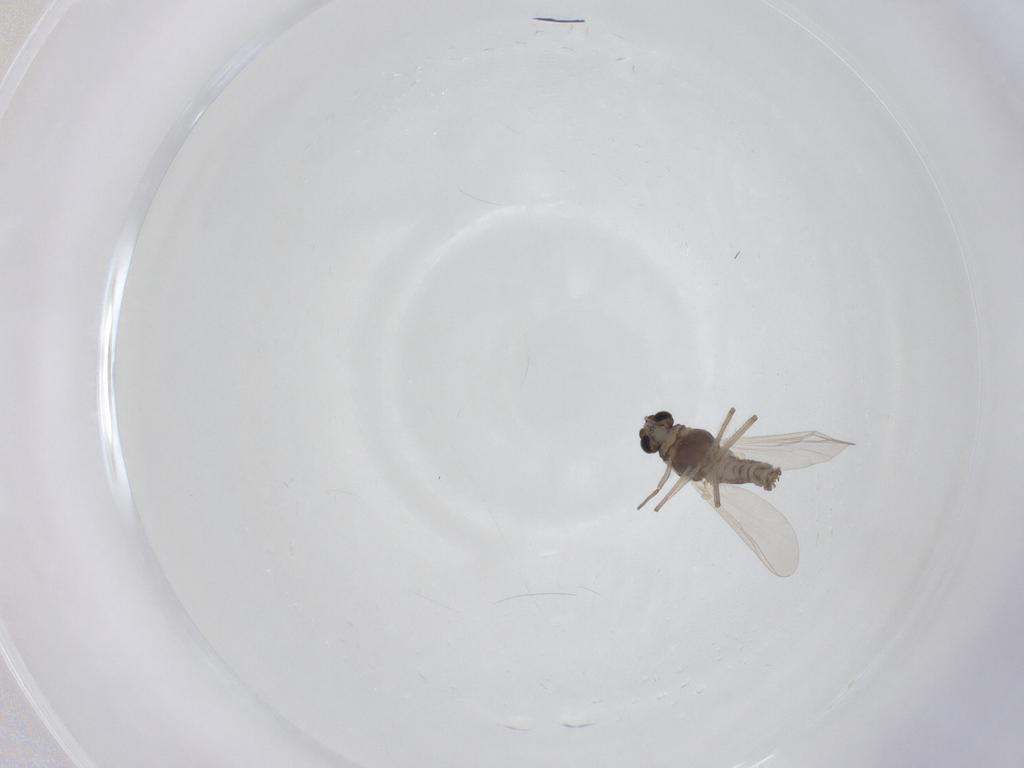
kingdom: Animalia
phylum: Arthropoda
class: Insecta
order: Diptera
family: Chironomidae
